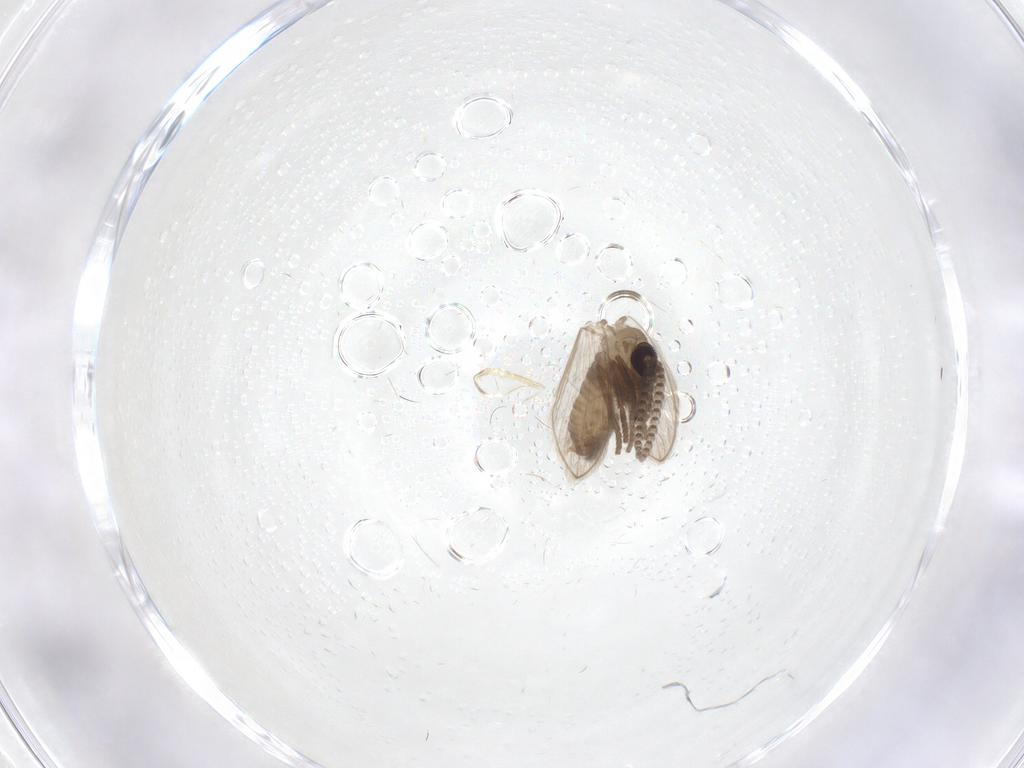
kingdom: Animalia
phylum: Arthropoda
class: Insecta
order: Diptera
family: Cecidomyiidae
